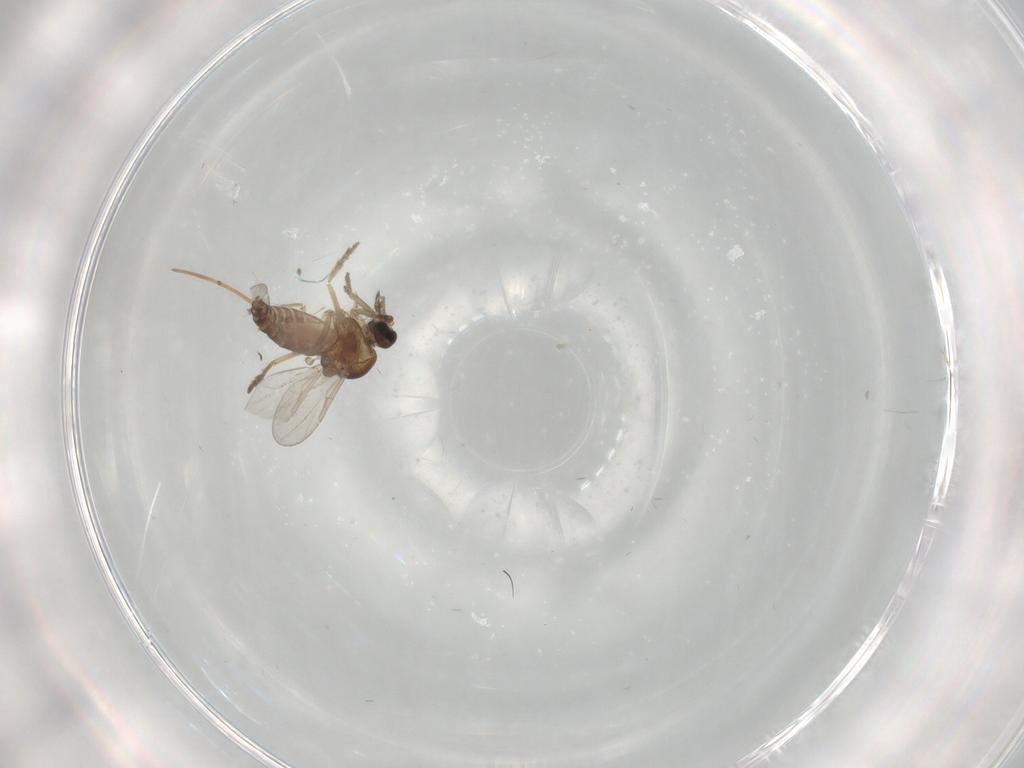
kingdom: Animalia
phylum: Arthropoda
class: Insecta
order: Diptera
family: Ceratopogonidae
